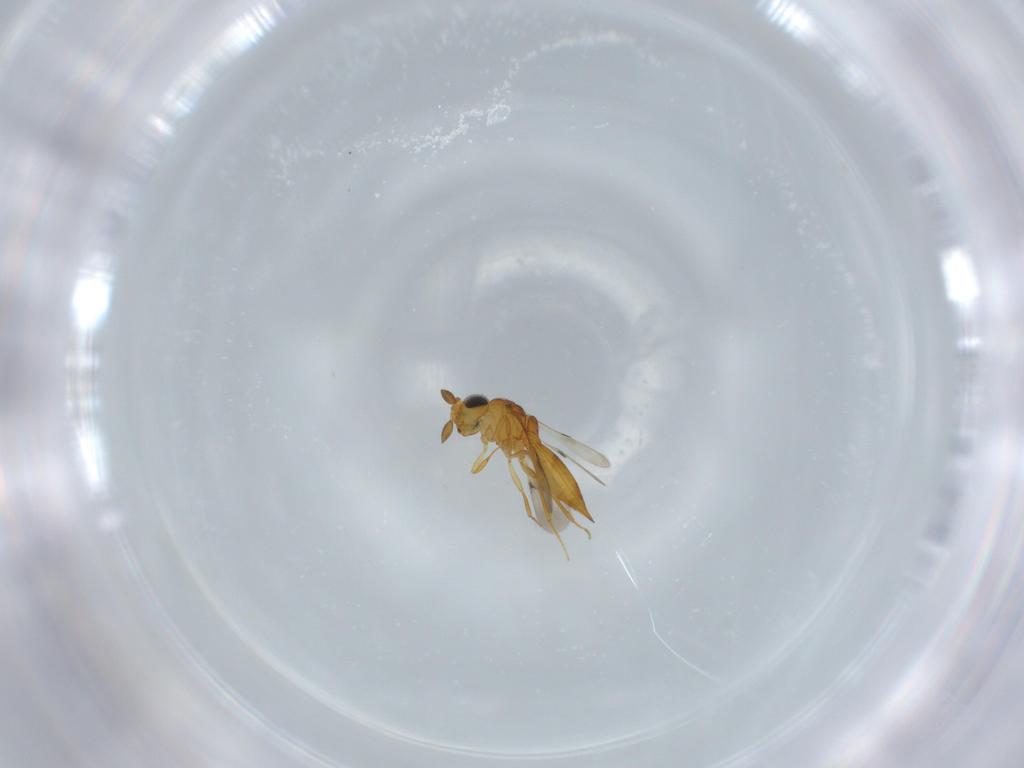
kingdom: Animalia
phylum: Arthropoda
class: Insecta
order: Hymenoptera
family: Scelionidae
